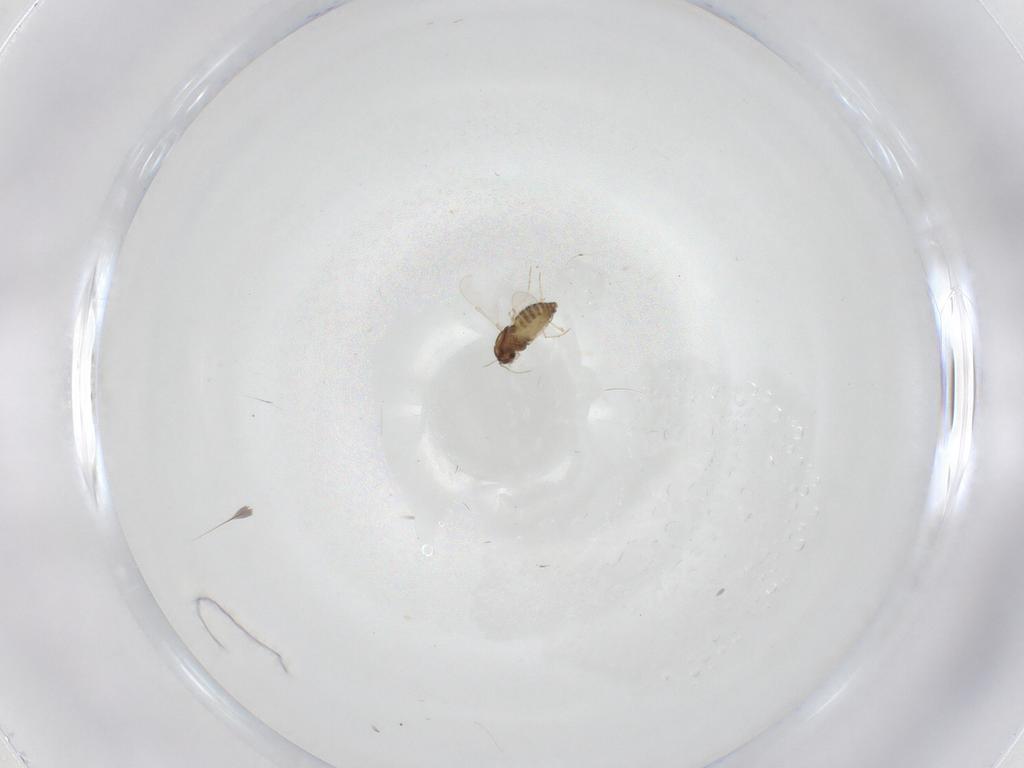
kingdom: Animalia
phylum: Arthropoda
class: Insecta
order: Diptera
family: Chironomidae
